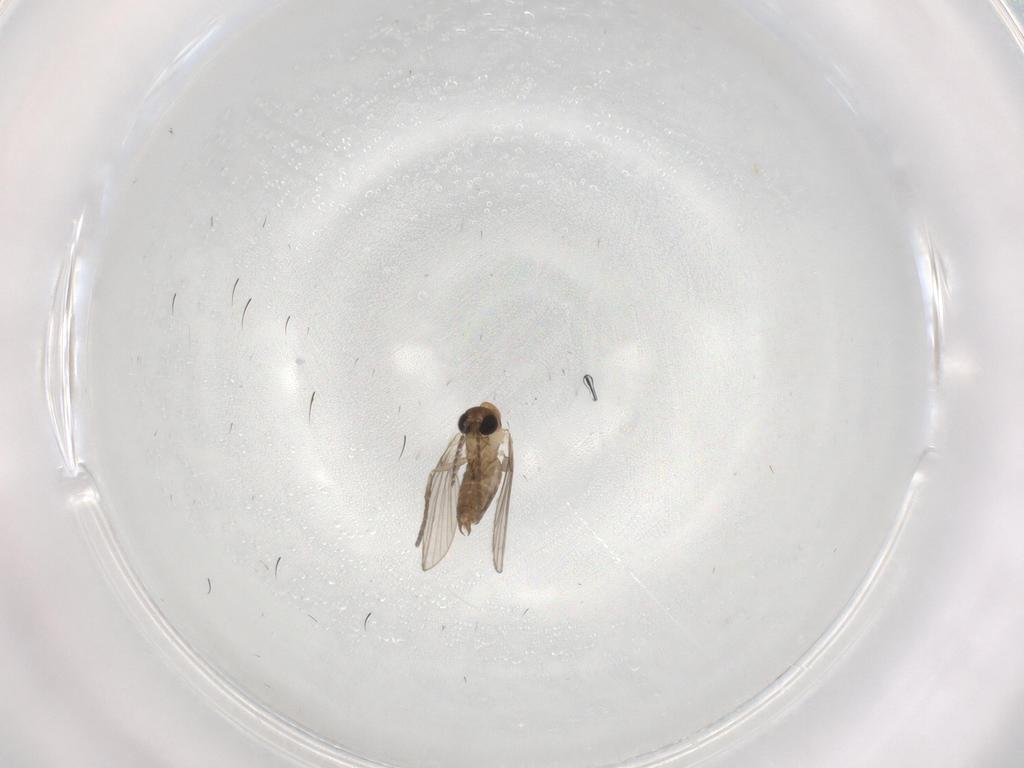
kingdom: Animalia
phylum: Arthropoda
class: Insecta
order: Diptera
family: Psychodidae
